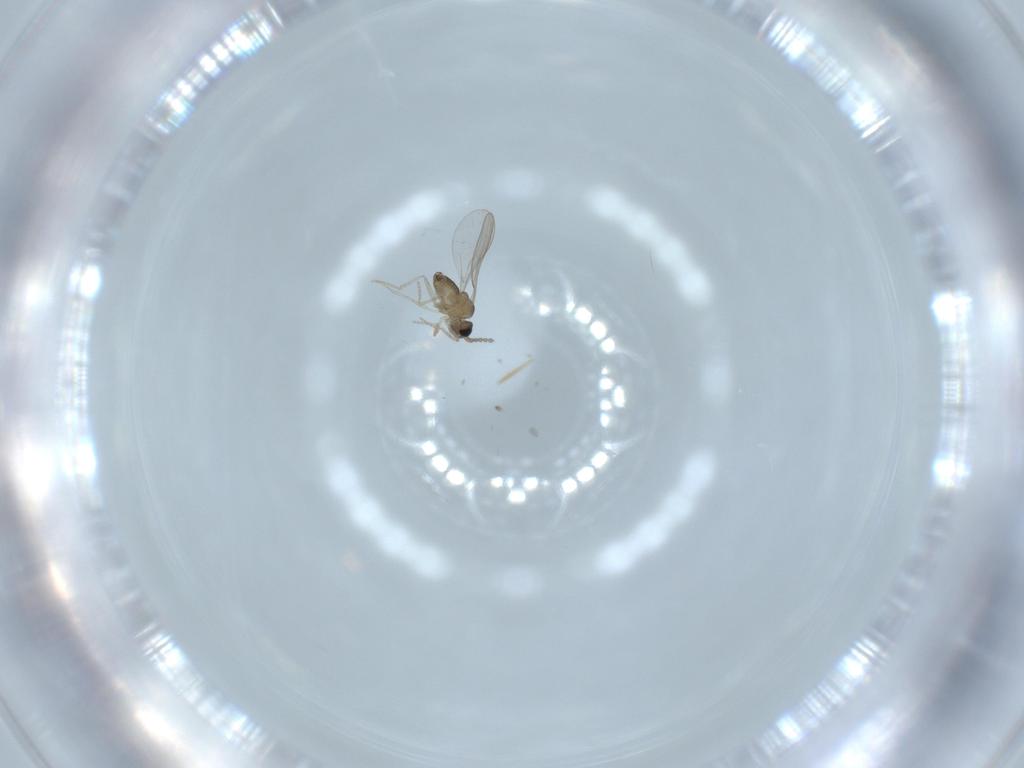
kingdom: Animalia
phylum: Arthropoda
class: Insecta
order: Diptera
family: Cecidomyiidae
